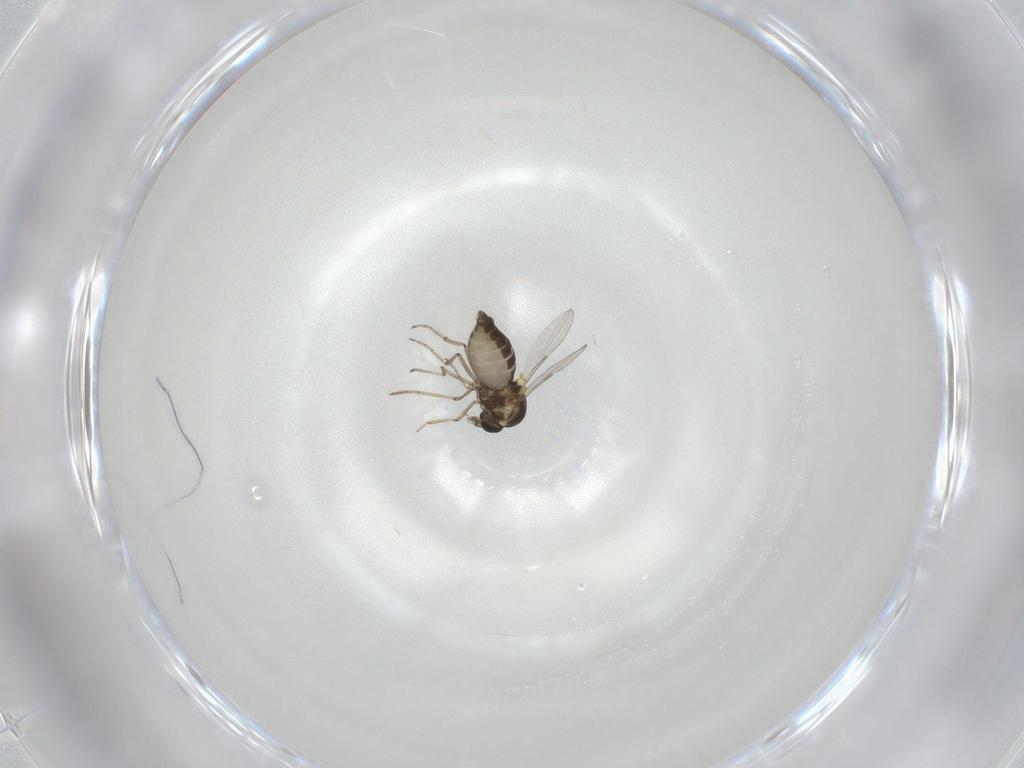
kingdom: Animalia
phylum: Arthropoda
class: Insecta
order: Diptera
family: Ceratopogonidae
